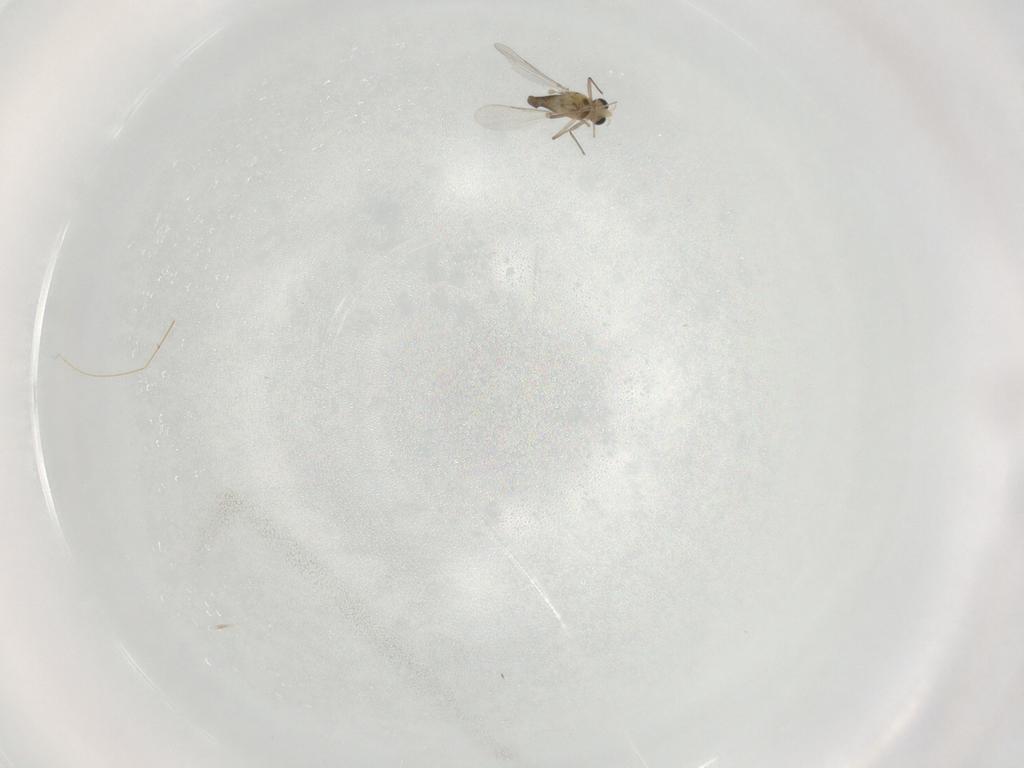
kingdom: Animalia
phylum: Arthropoda
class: Insecta
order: Diptera
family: Chironomidae
